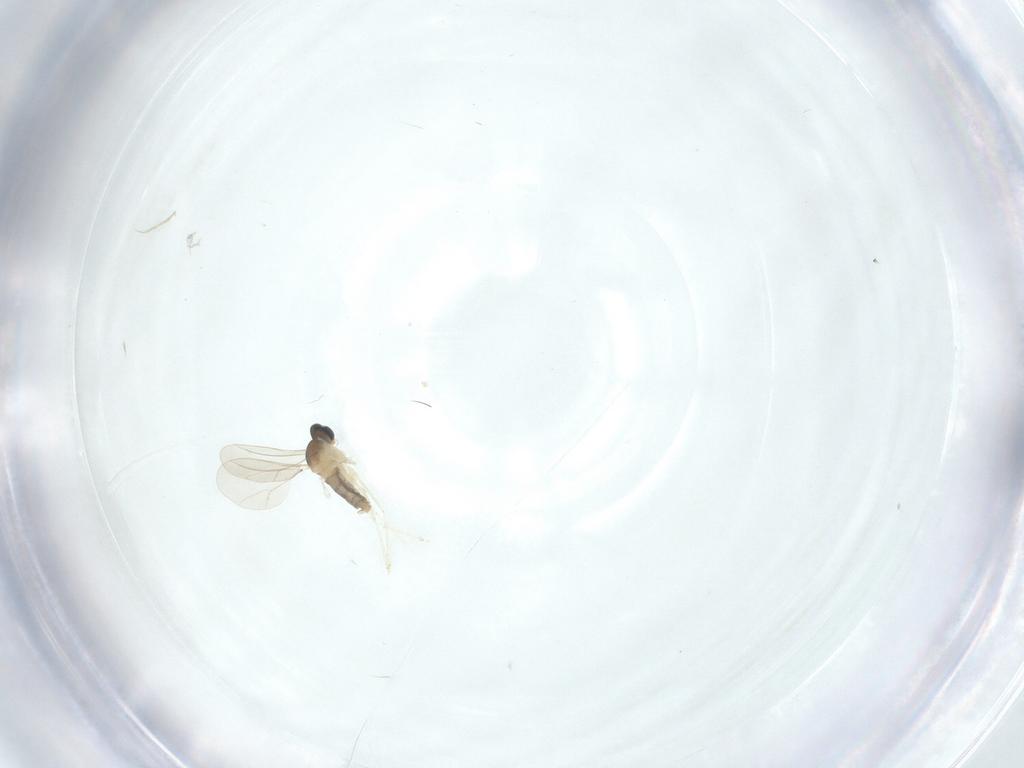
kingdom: Animalia
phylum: Arthropoda
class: Insecta
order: Diptera
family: Cecidomyiidae
